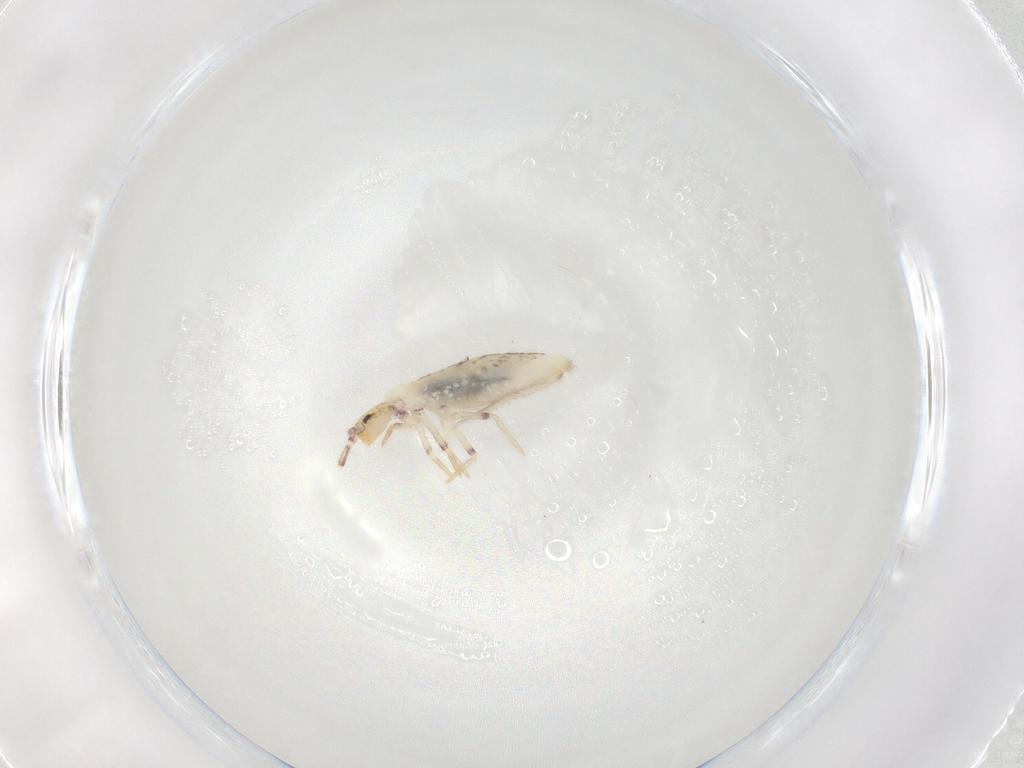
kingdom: Animalia
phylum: Arthropoda
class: Collembola
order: Entomobryomorpha
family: Entomobryidae
